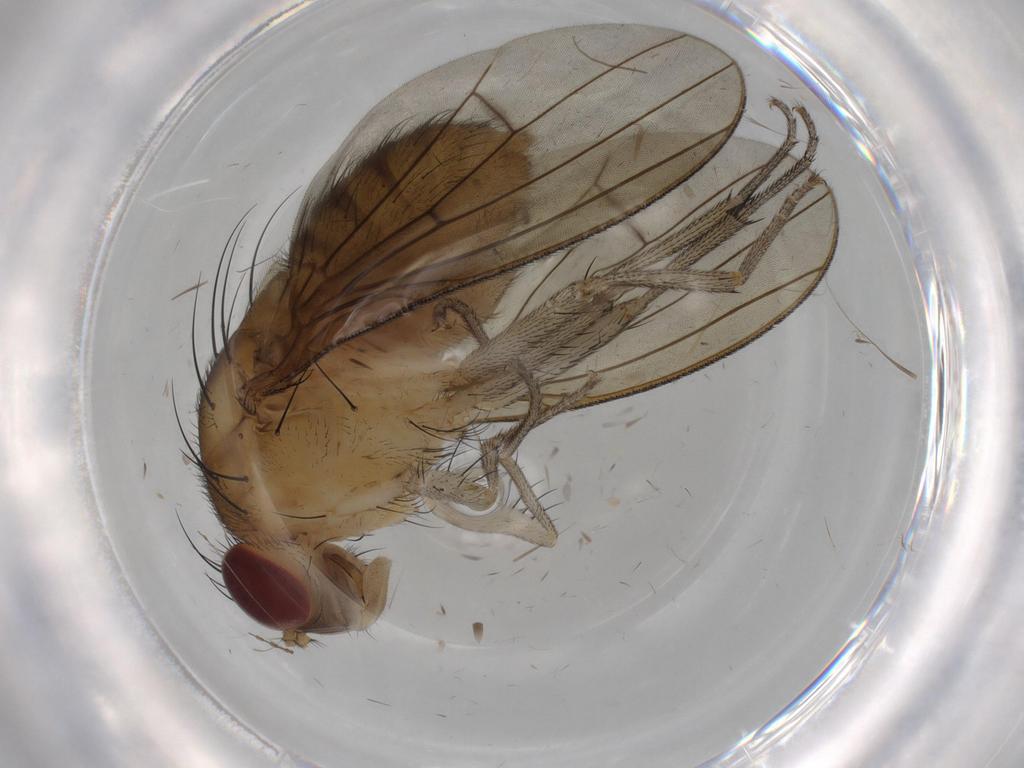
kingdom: Animalia
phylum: Arthropoda
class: Insecta
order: Diptera
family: Lauxaniidae
